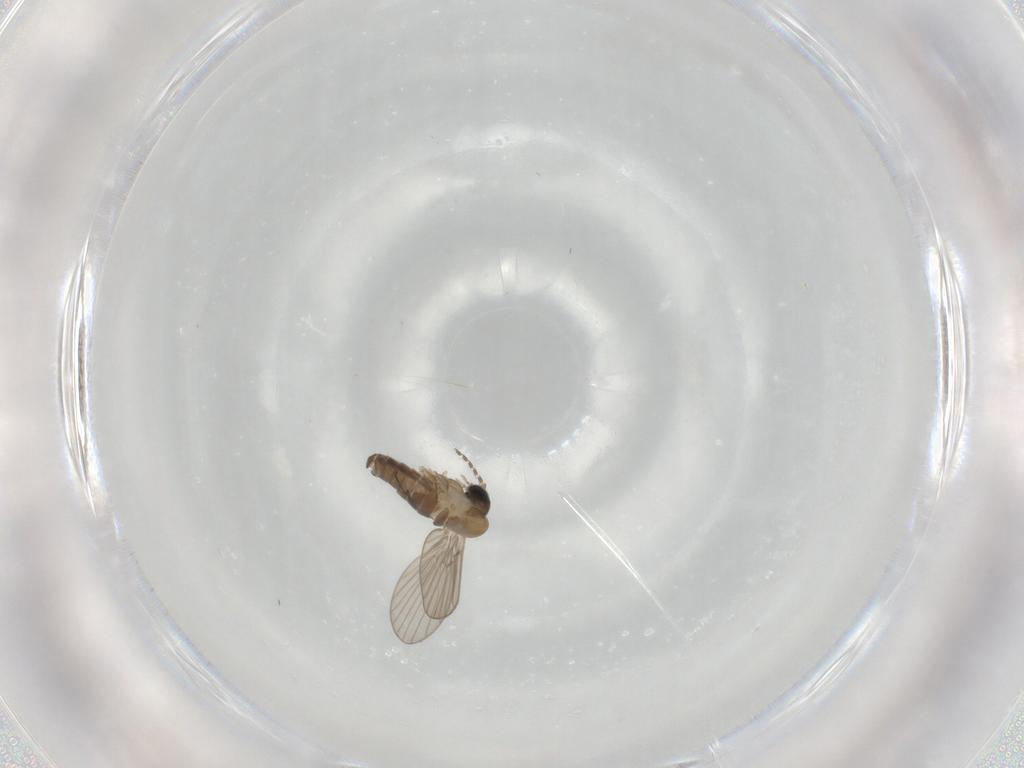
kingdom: Animalia
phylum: Arthropoda
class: Insecta
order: Diptera
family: Psychodidae
